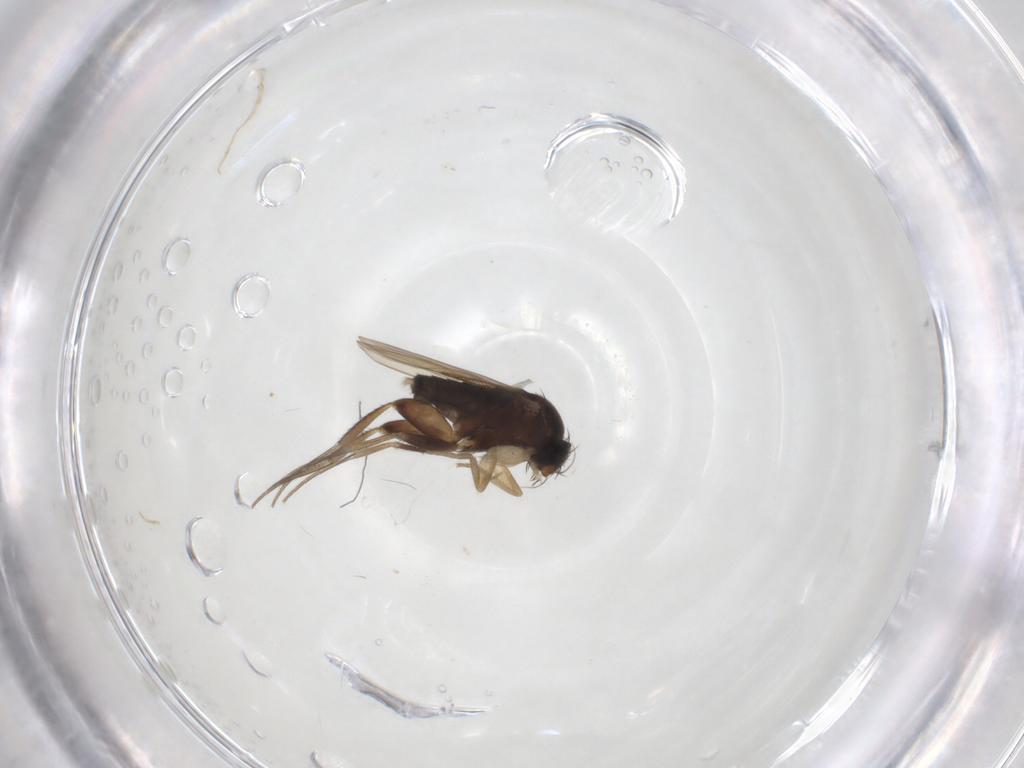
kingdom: Animalia
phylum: Arthropoda
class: Insecta
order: Diptera
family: Phoridae
